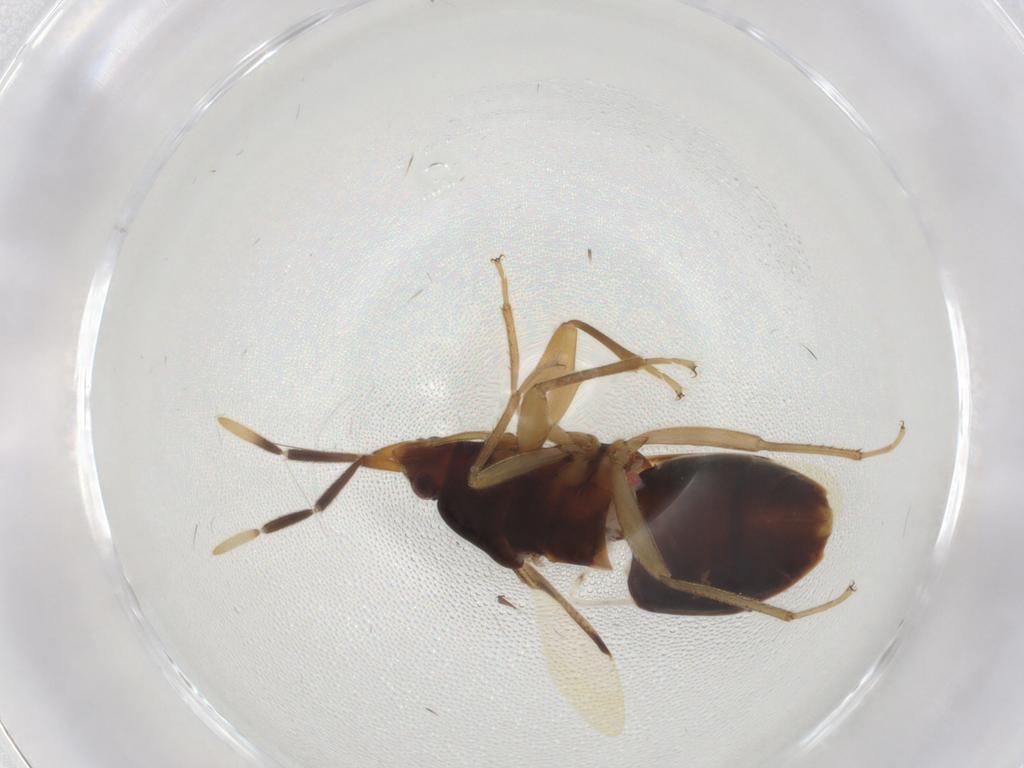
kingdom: Animalia
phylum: Arthropoda
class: Insecta
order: Hemiptera
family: Rhyparochromidae
